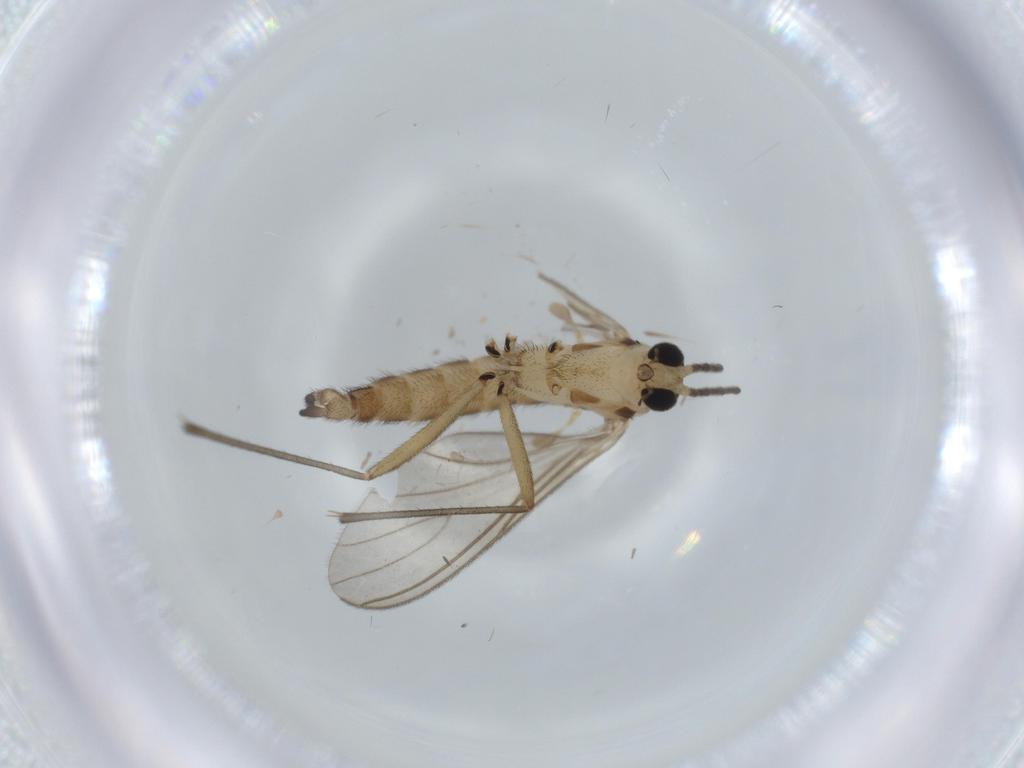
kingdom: Animalia
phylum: Arthropoda
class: Insecta
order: Diptera
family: Sciaridae
